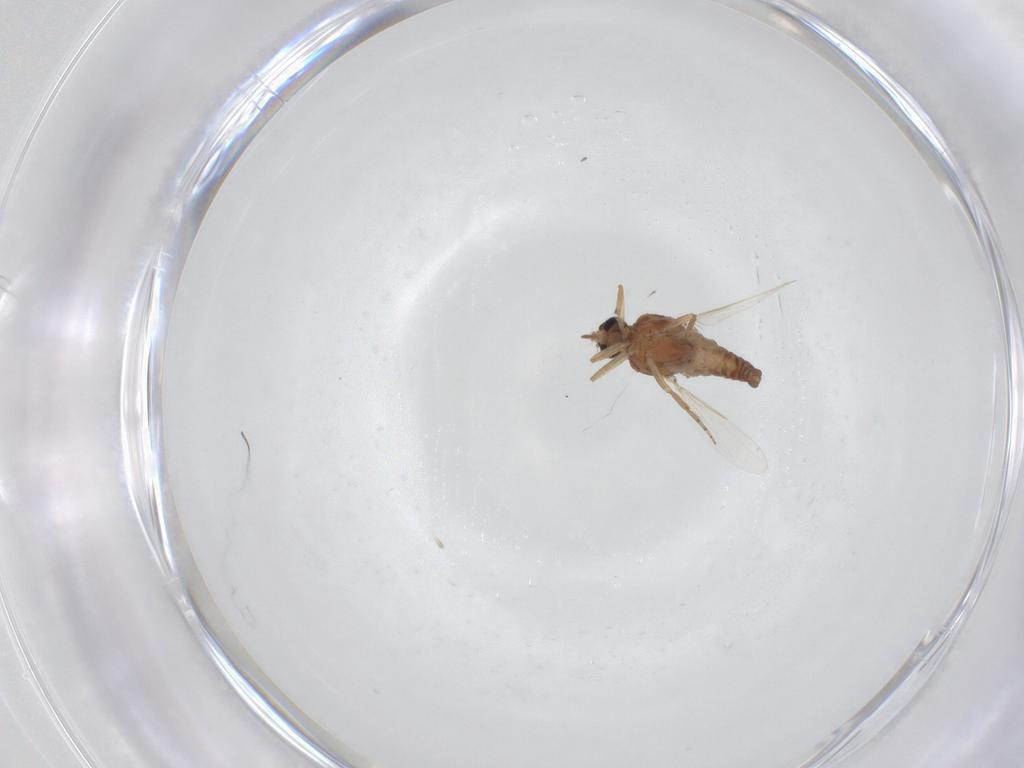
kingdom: Animalia
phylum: Arthropoda
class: Insecta
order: Diptera
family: Ceratopogonidae
